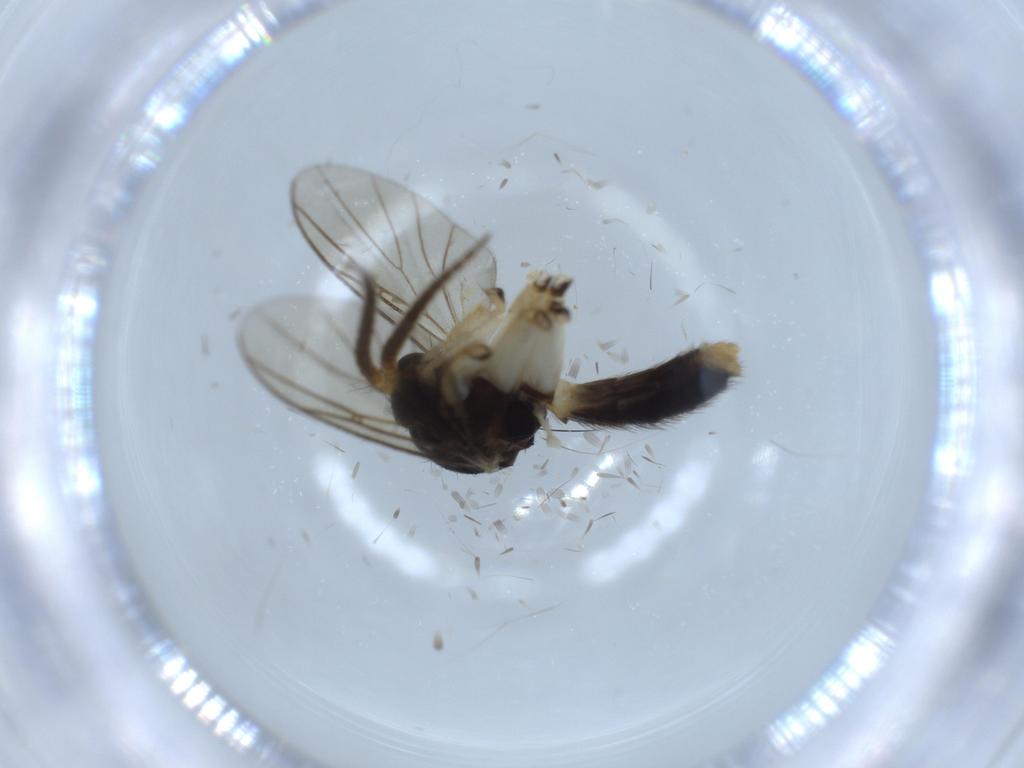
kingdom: Animalia
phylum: Arthropoda
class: Insecta
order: Diptera
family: Mycetophilidae
